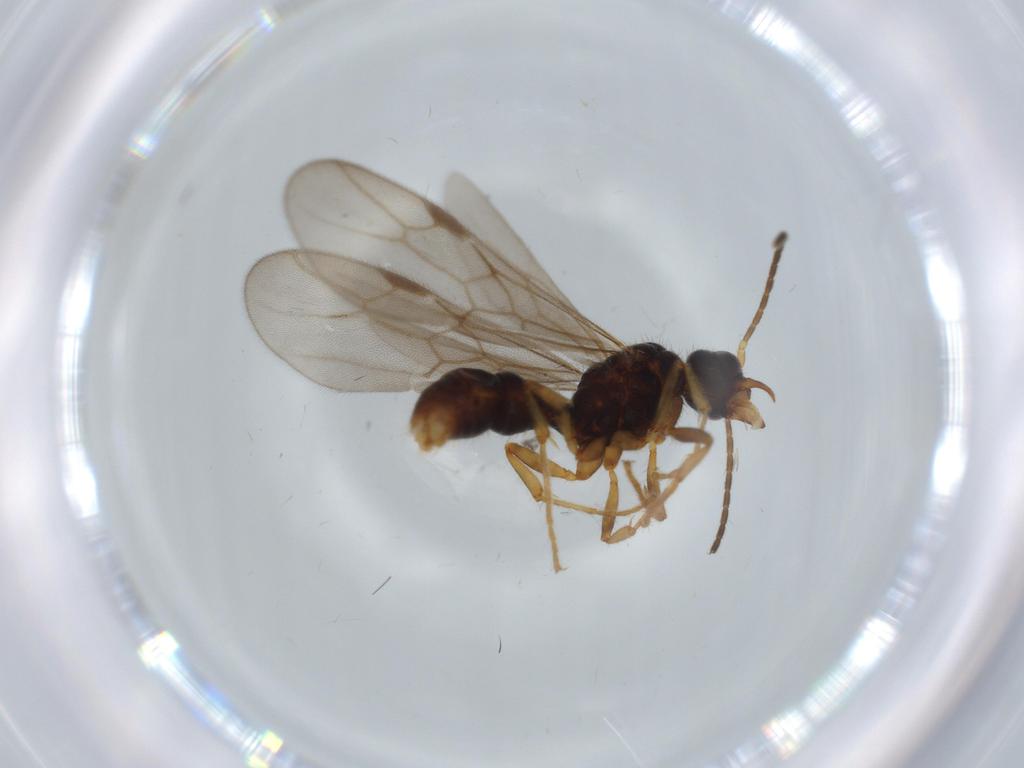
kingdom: Animalia
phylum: Arthropoda
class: Insecta
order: Hymenoptera
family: Formicidae
